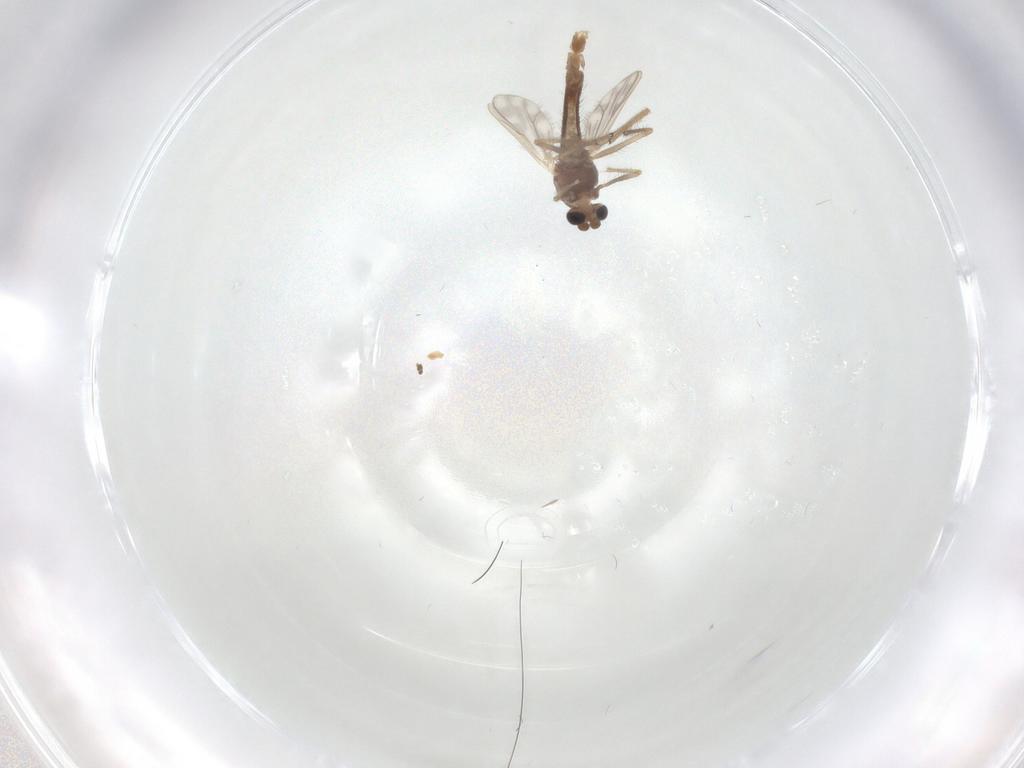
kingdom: Animalia
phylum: Arthropoda
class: Insecta
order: Diptera
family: Chironomidae
